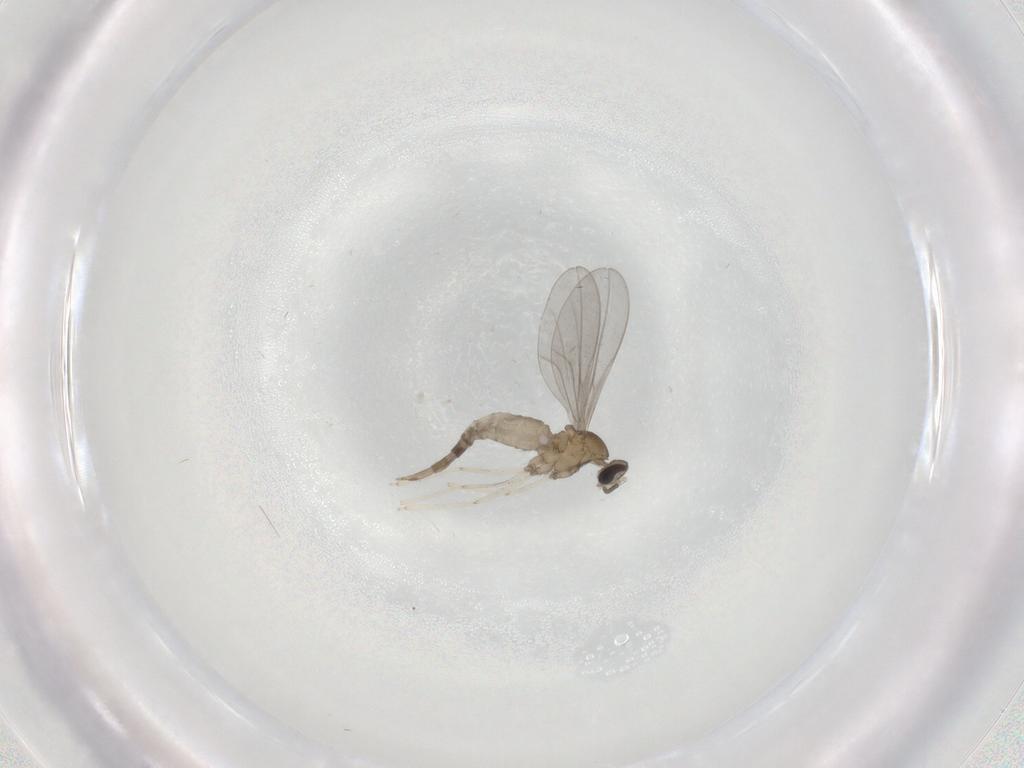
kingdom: Animalia
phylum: Arthropoda
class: Insecta
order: Diptera
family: Cecidomyiidae
